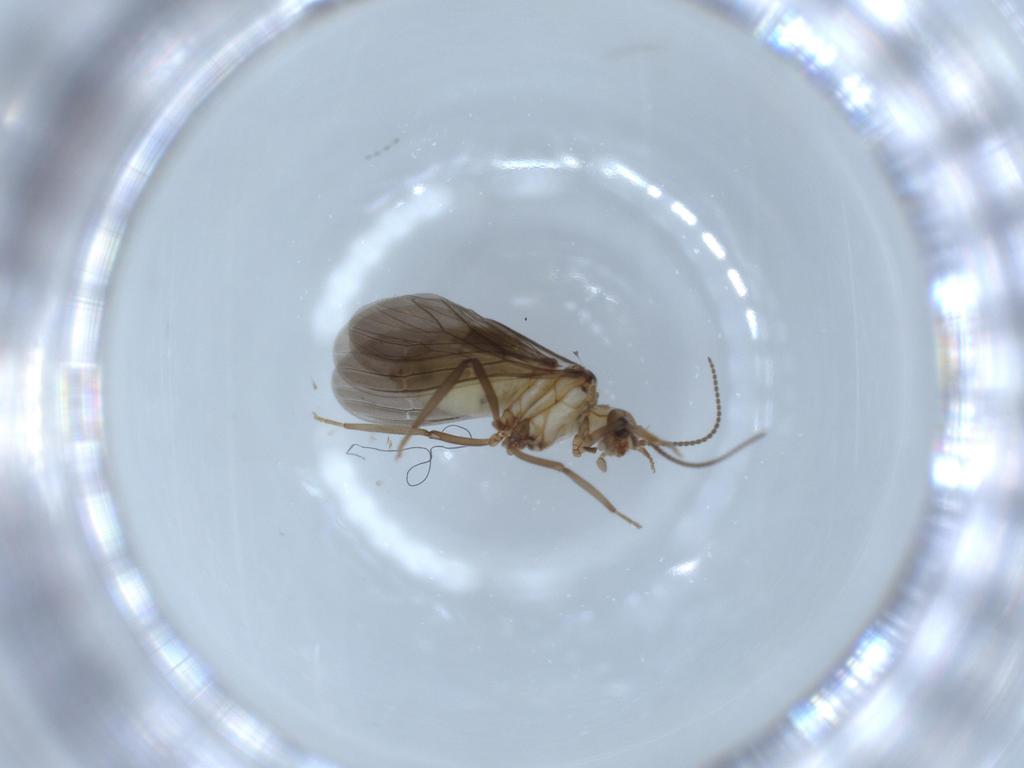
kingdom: Animalia
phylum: Arthropoda
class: Insecta
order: Neuroptera
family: Coniopterygidae
